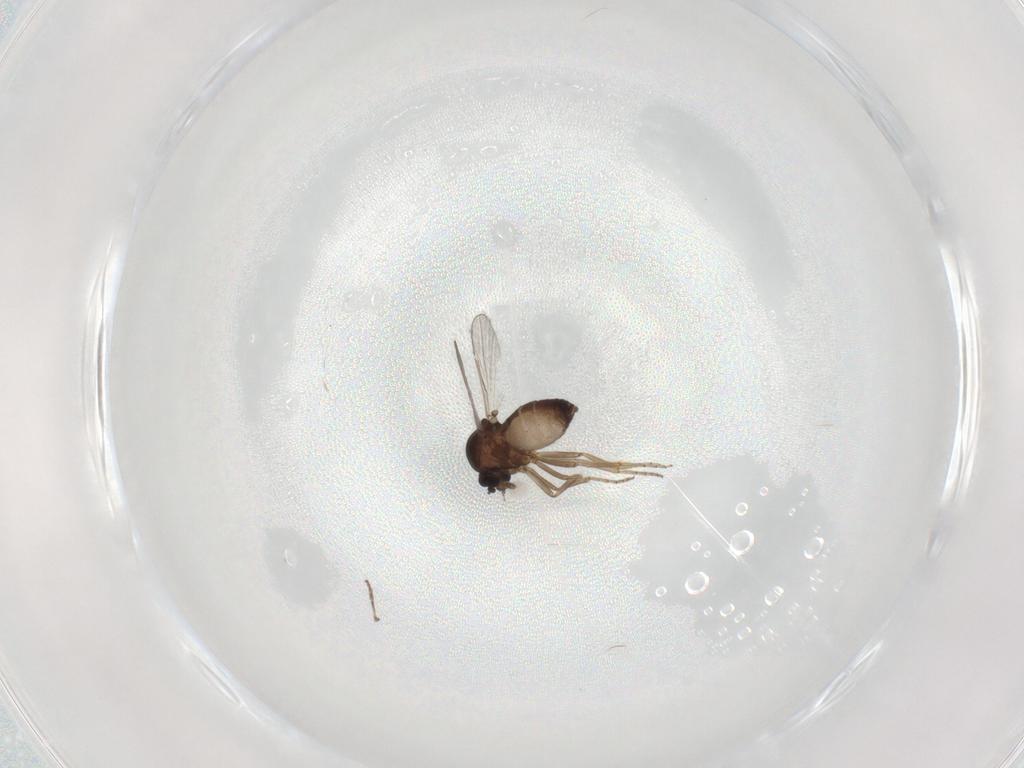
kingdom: Animalia
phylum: Arthropoda
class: Insecta
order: Diptera
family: Ceratopogonidae
